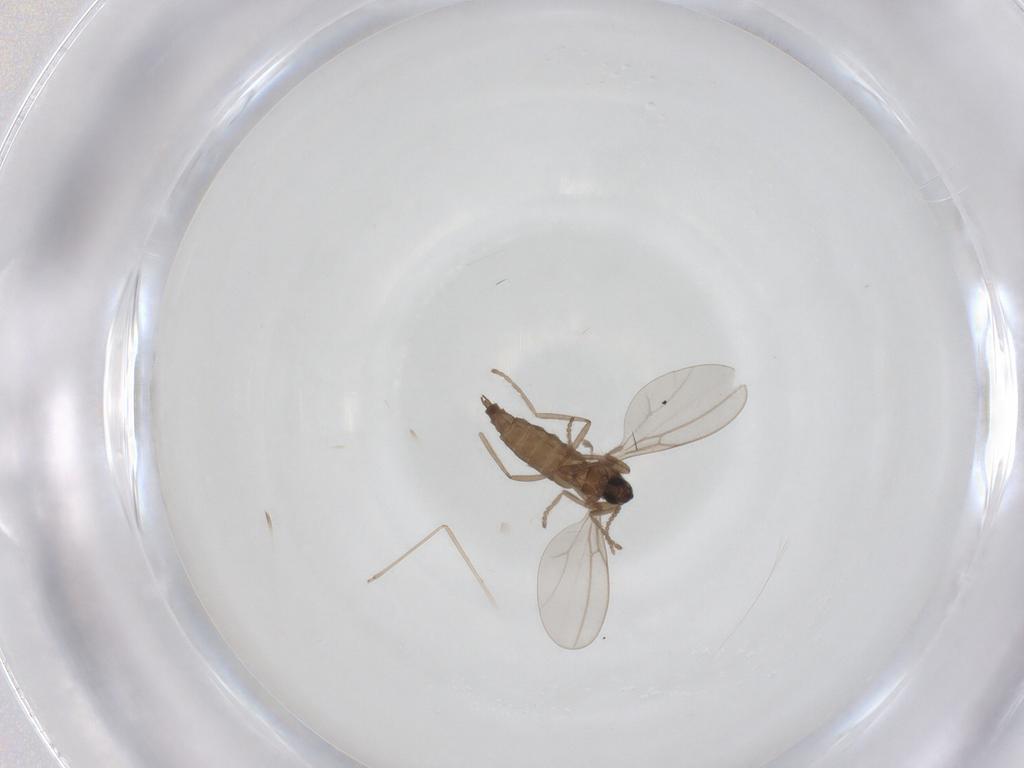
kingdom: Animalia
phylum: Arthropoda
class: Insecta
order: Diptera
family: Cecidomyiidae
